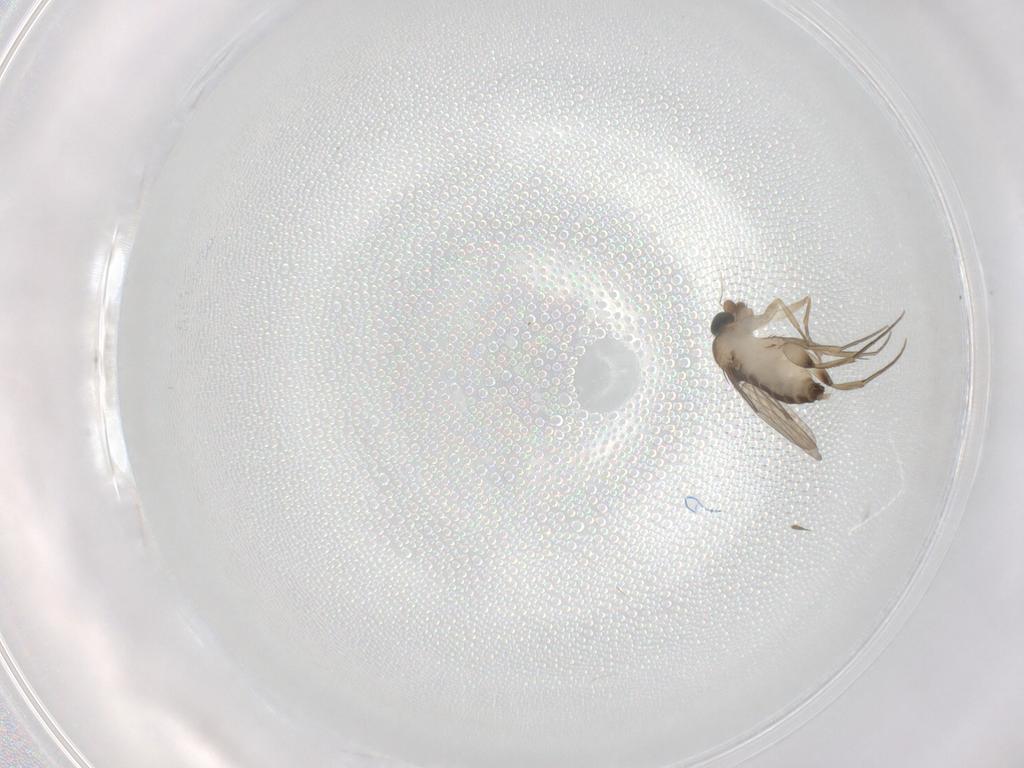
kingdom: Animalia
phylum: Arthropoda
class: Insecta
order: Diptera
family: Phoridae
